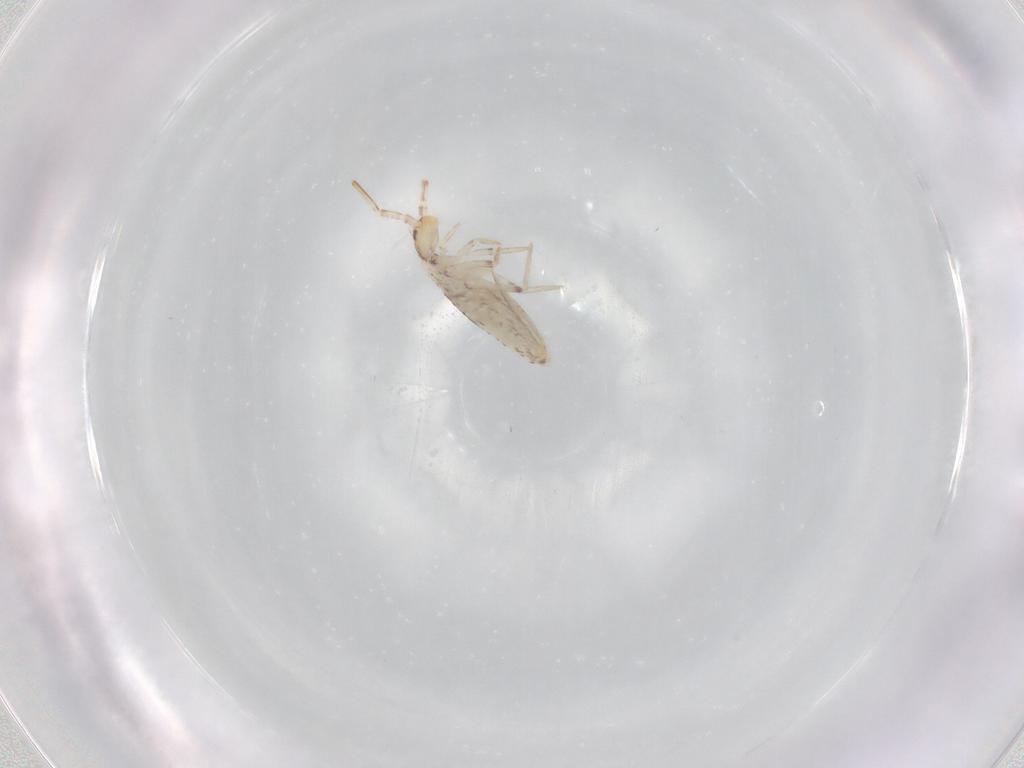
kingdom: Animalia
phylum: Arthropoda
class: Collembola
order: Entomobryomorpha
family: Entomobryidae
